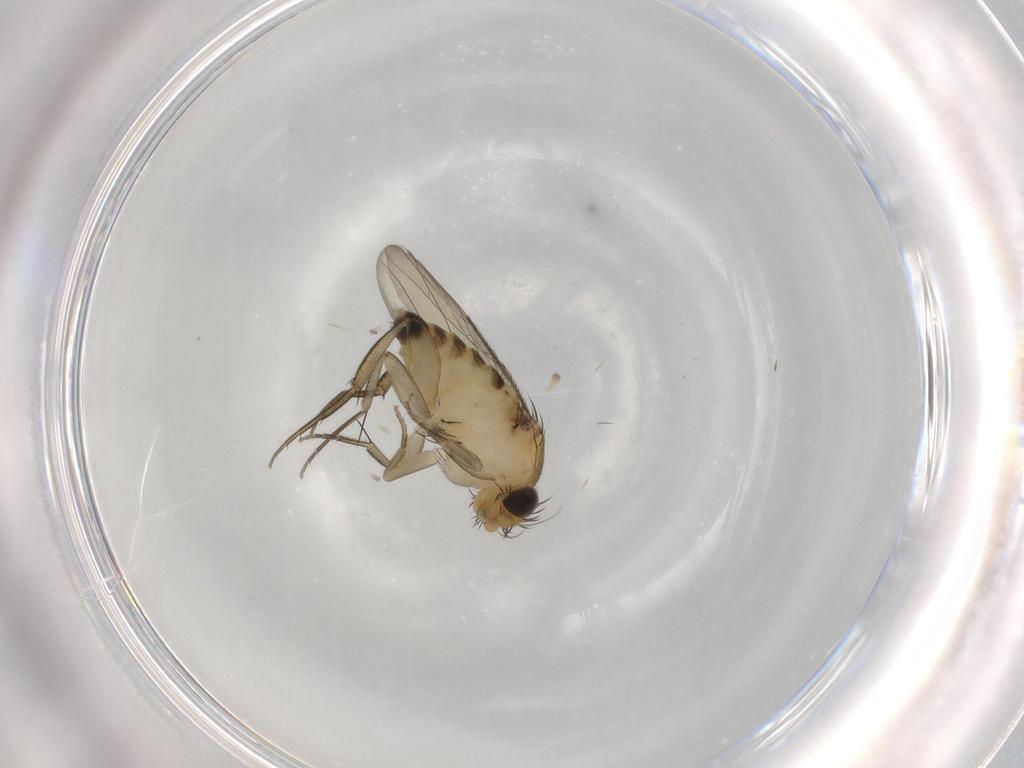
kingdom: Animalia
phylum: Arthropoda
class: Insecta
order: Diptera
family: Phoridae
